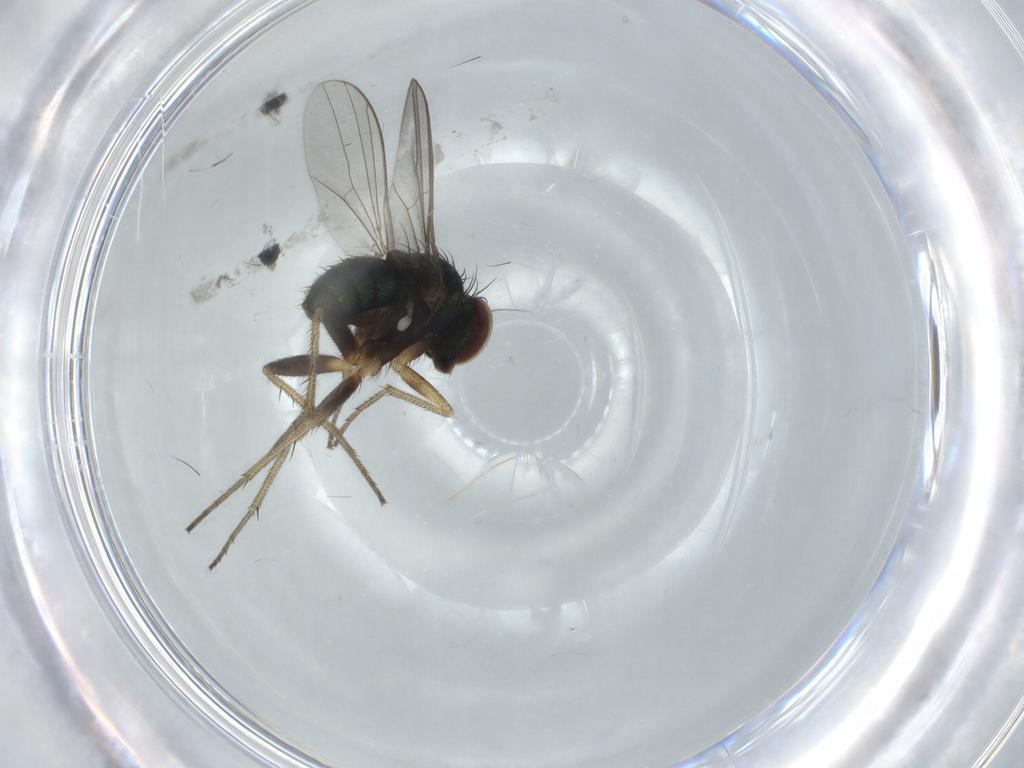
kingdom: Animalia
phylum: Arthropoda
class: Insecta
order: Diptera
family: Dolichopodidae
